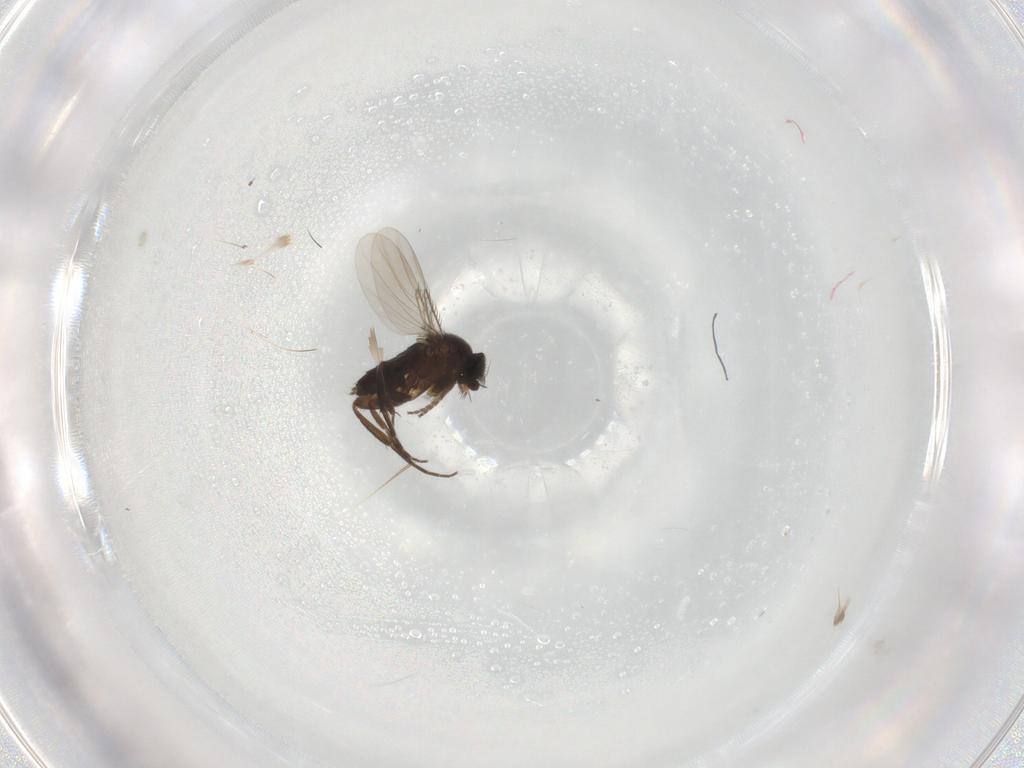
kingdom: Animalia
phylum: Arthropoda
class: Insecta
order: Diptera
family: Phoridae
